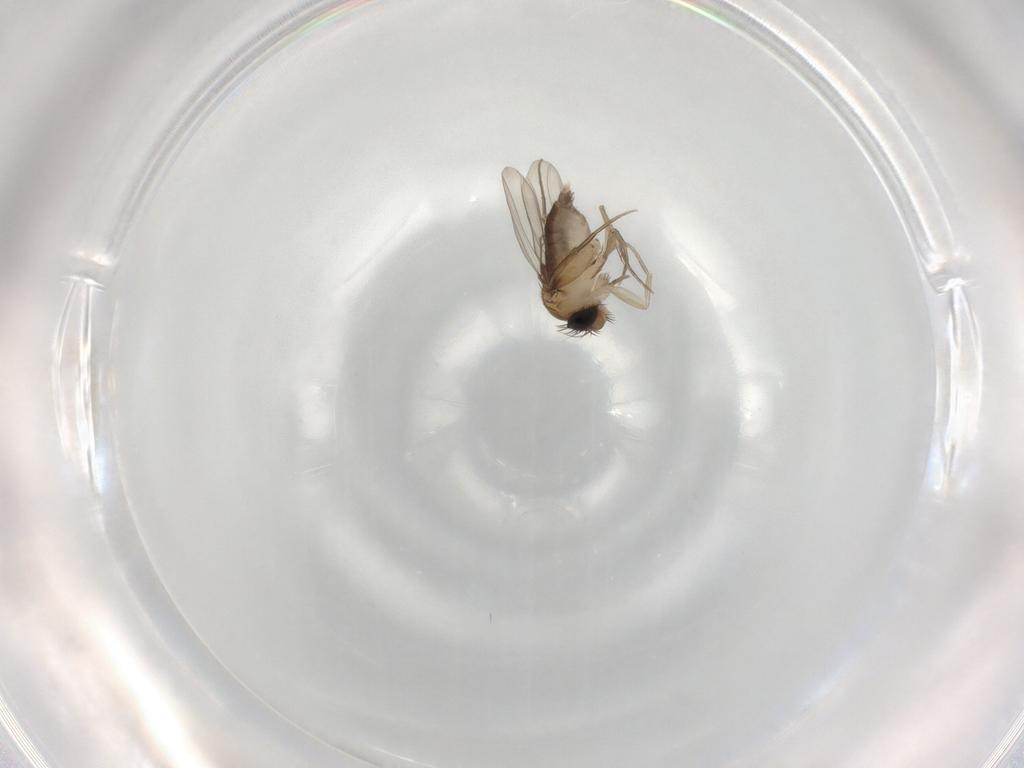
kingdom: Animalia
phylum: Arthropoda
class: Insecta
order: Diptera
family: Phoridae
